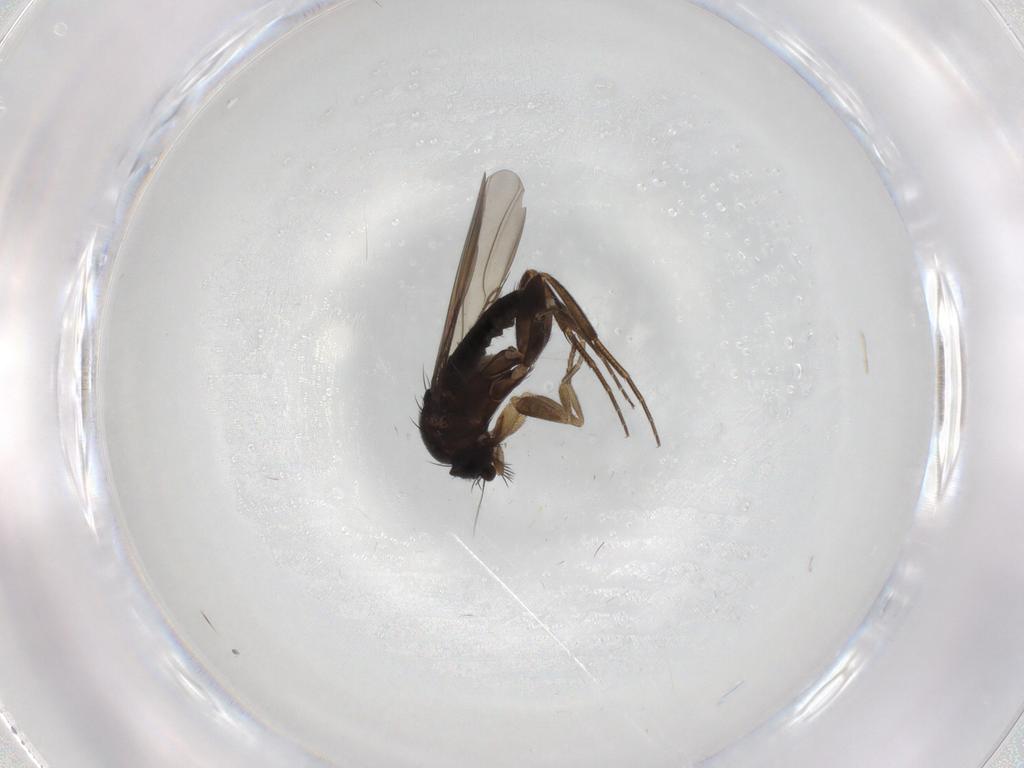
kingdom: Animalia
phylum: Arthropoda
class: Insecta
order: Diptera
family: Phoridae
